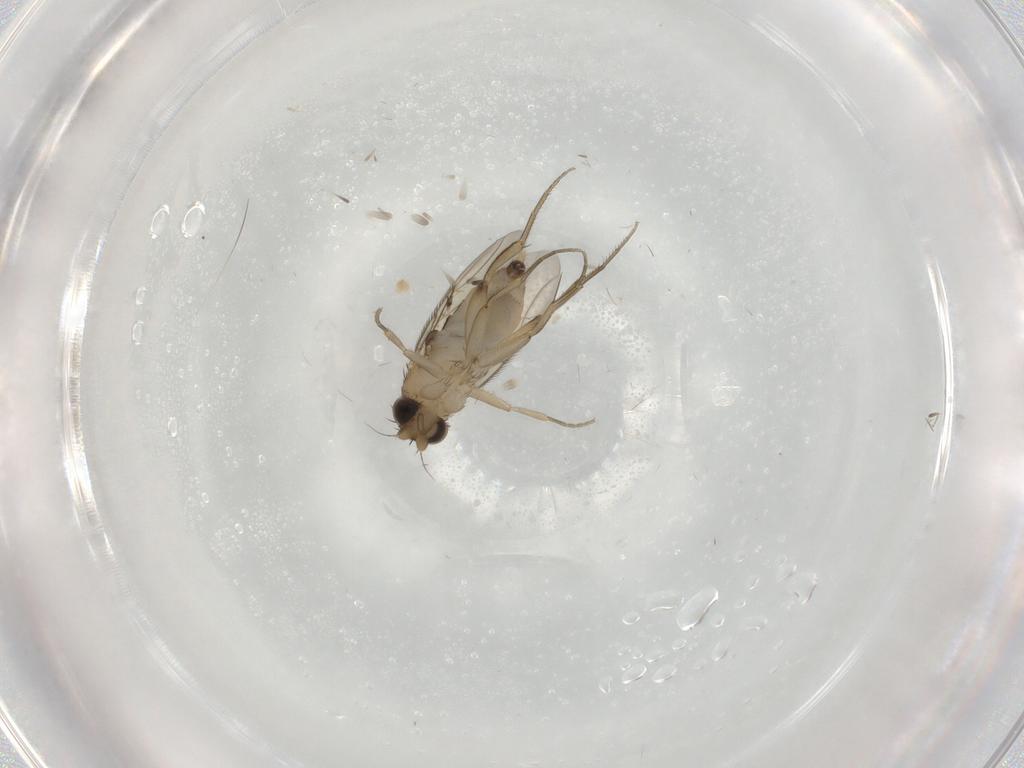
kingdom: Animalia
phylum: Arthropoda
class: Insecta
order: Diptera
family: Phoridae
